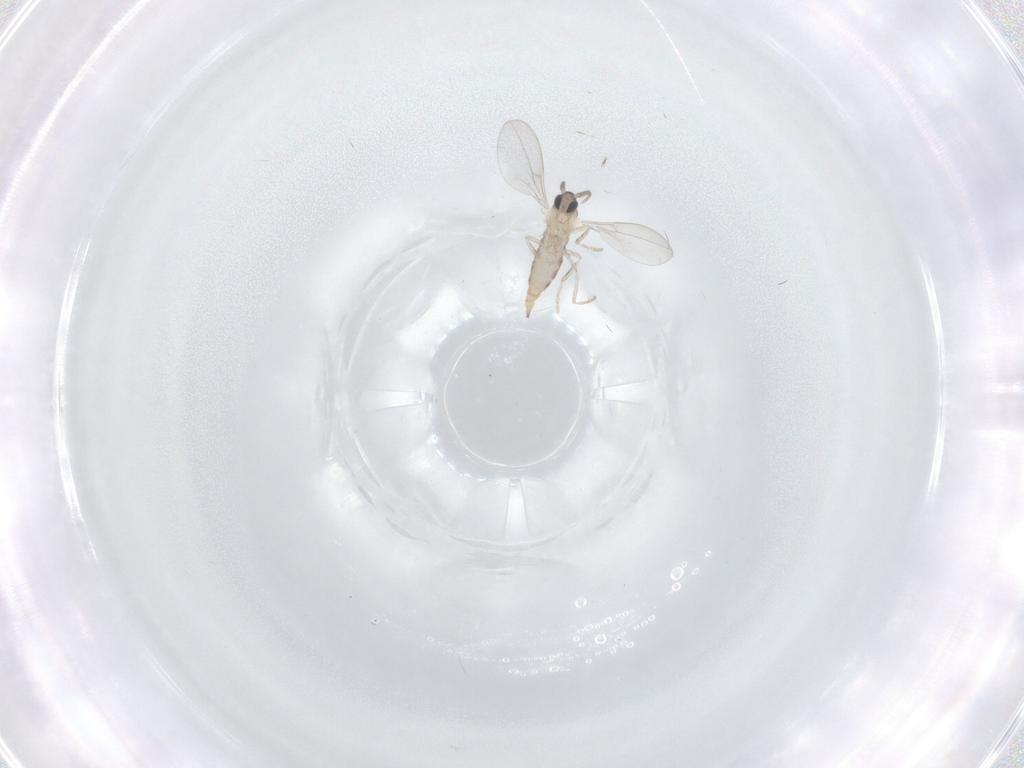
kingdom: Animalia
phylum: Arthropoda
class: Insecta
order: Diptera
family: Cecidomyiidae
